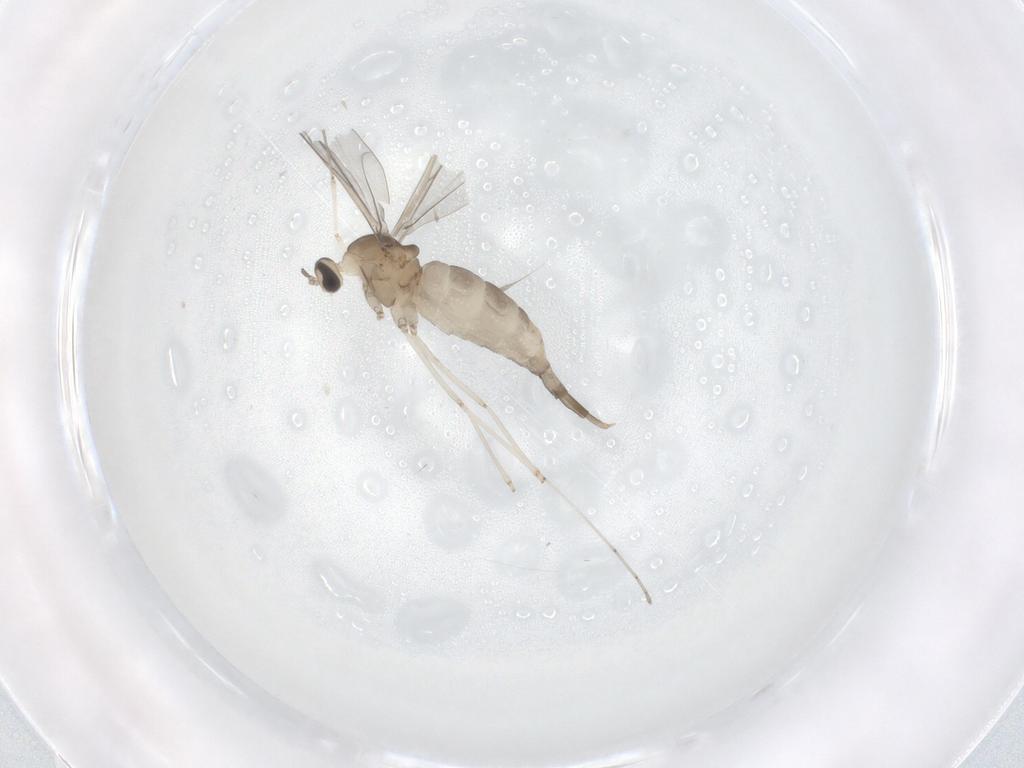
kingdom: Animalia
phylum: Arthropoda
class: Insecta
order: Diptera
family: Cecidomyiidae
